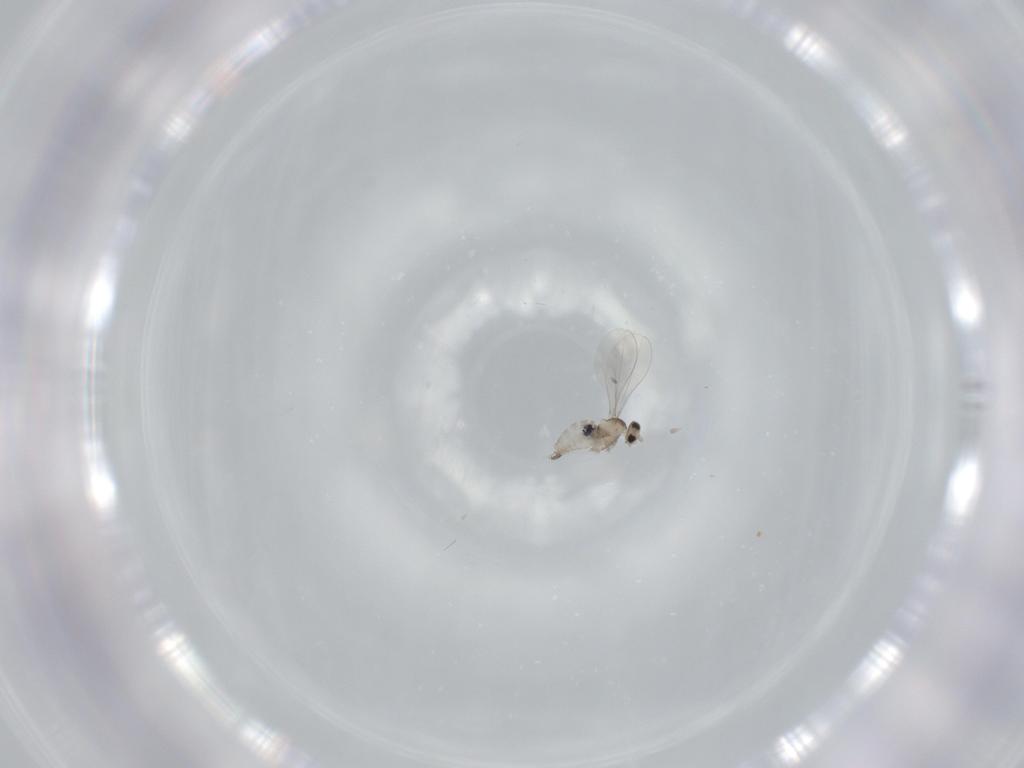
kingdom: Animalia
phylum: Arthropoda
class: Insecta
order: Diptera
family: Cecidomyiidae
